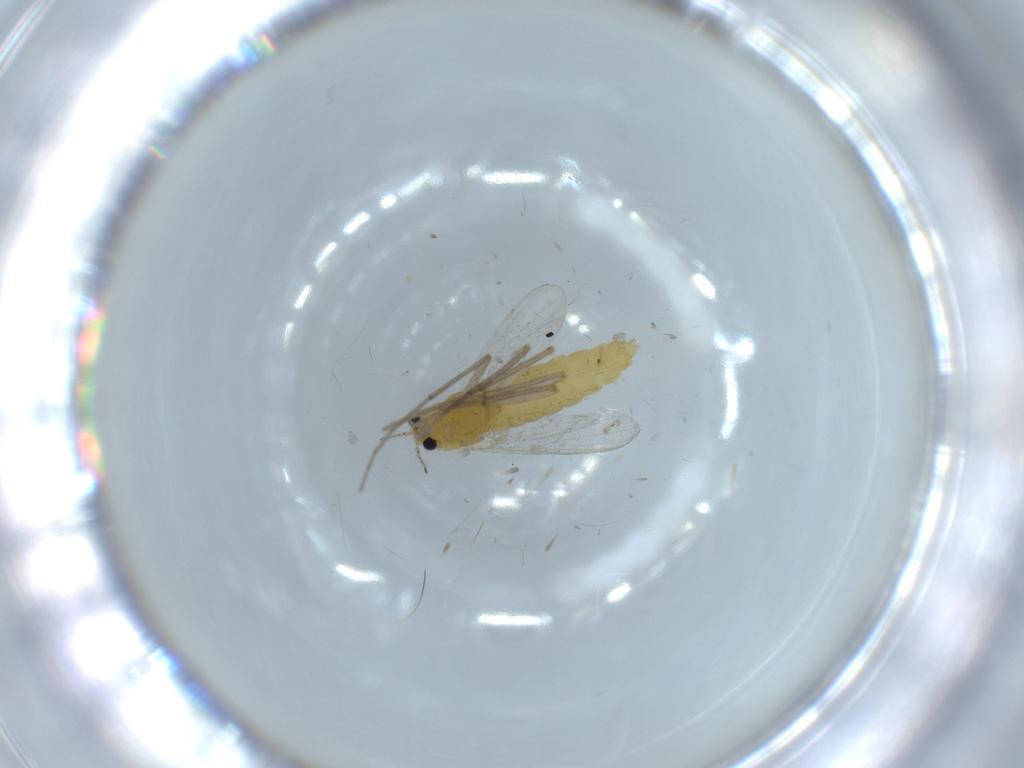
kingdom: Animalia
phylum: Arthropoda
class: Insecta
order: Diptera
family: Chironomidae
